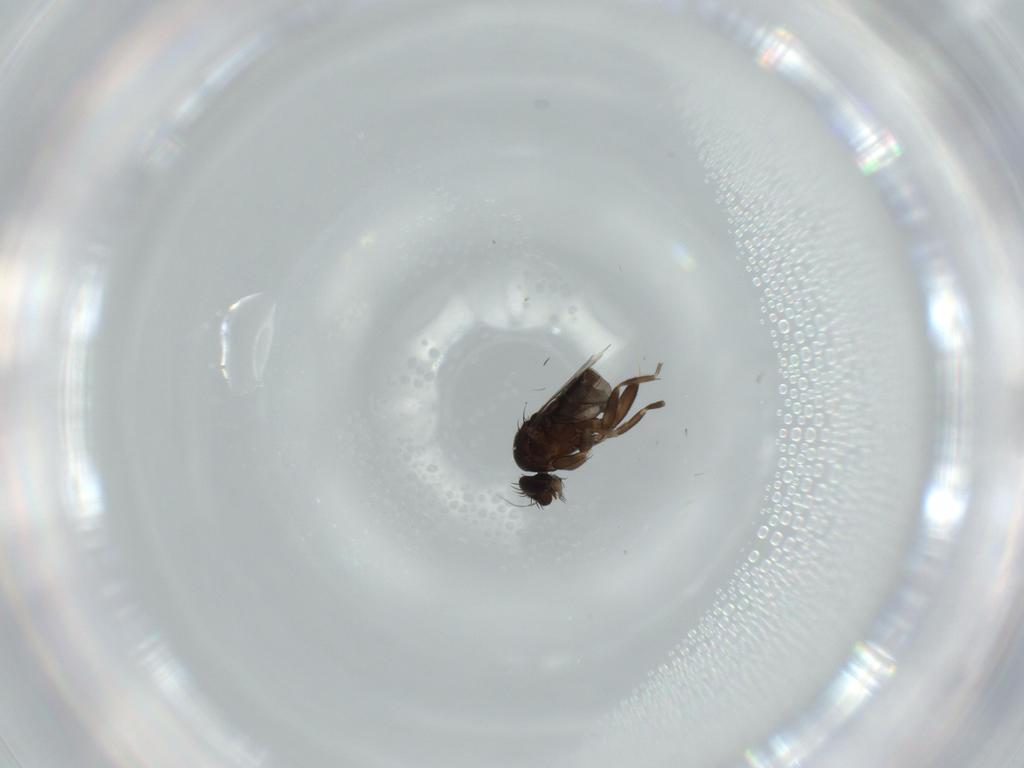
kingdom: Animalia
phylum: Arthropoda
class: Insecta
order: Diptera
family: Phoridae
